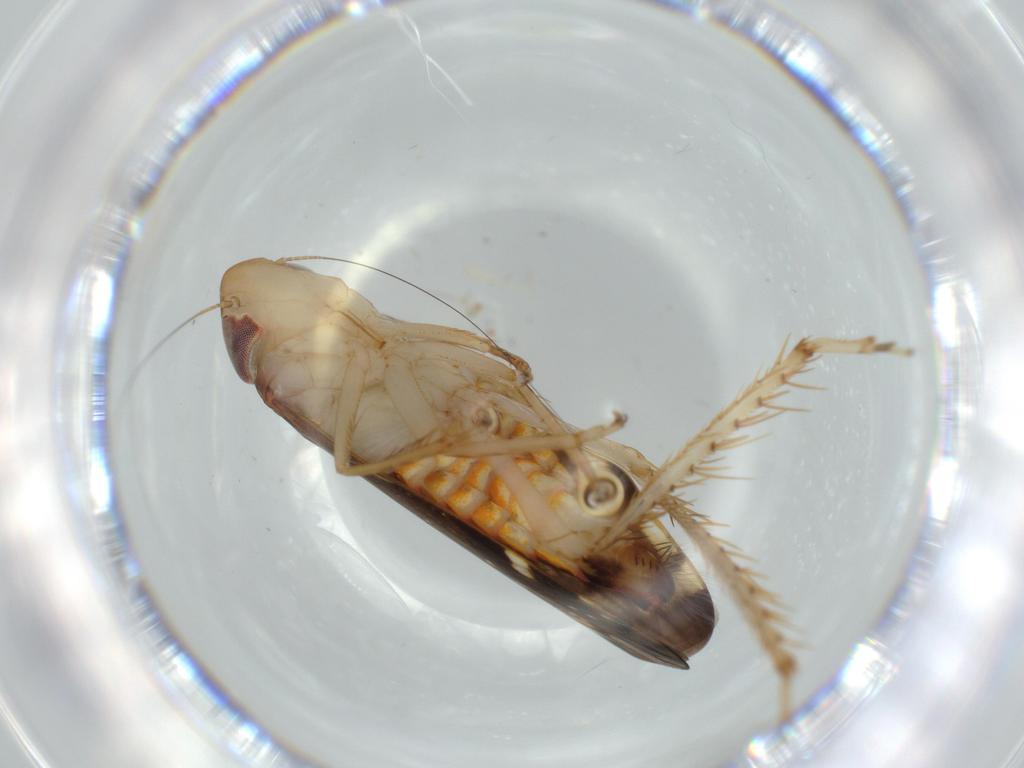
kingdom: Animalia
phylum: Arthropoda
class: Insecta
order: Hemiptera
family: Cicadellidae
